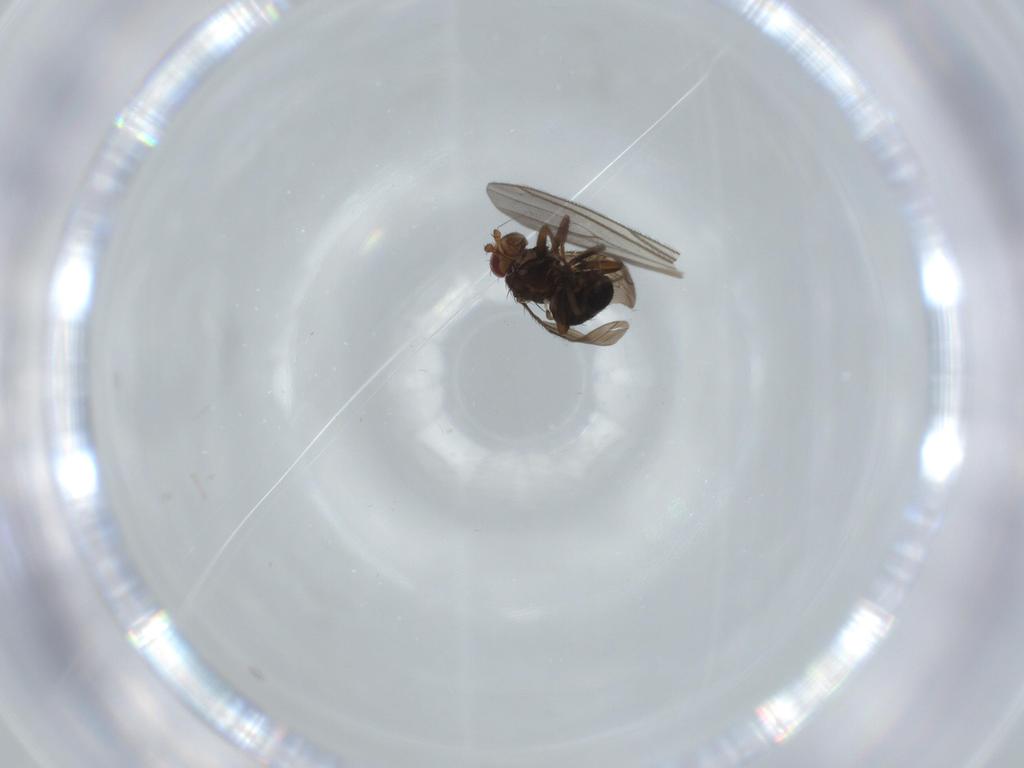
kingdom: Animalia
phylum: Arthropoda
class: Insecta
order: Diptera
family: Sphaeroceridae
